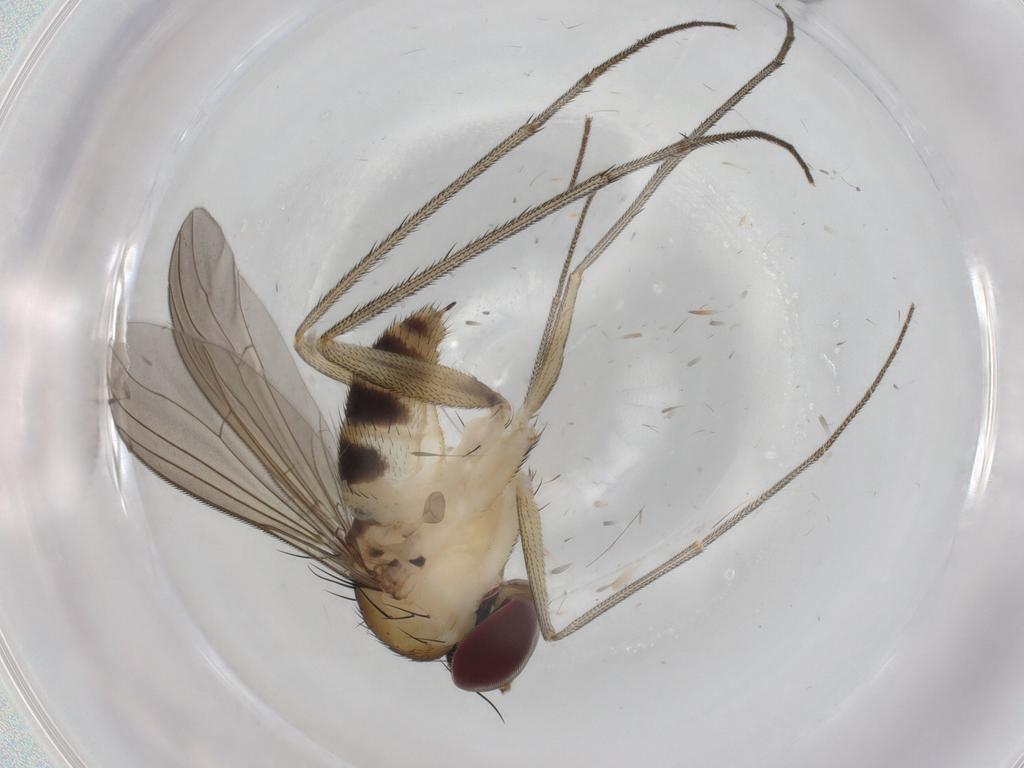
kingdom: Animalia
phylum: Arthropoda
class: Insecta
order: Diptera
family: Dolichopodidae
